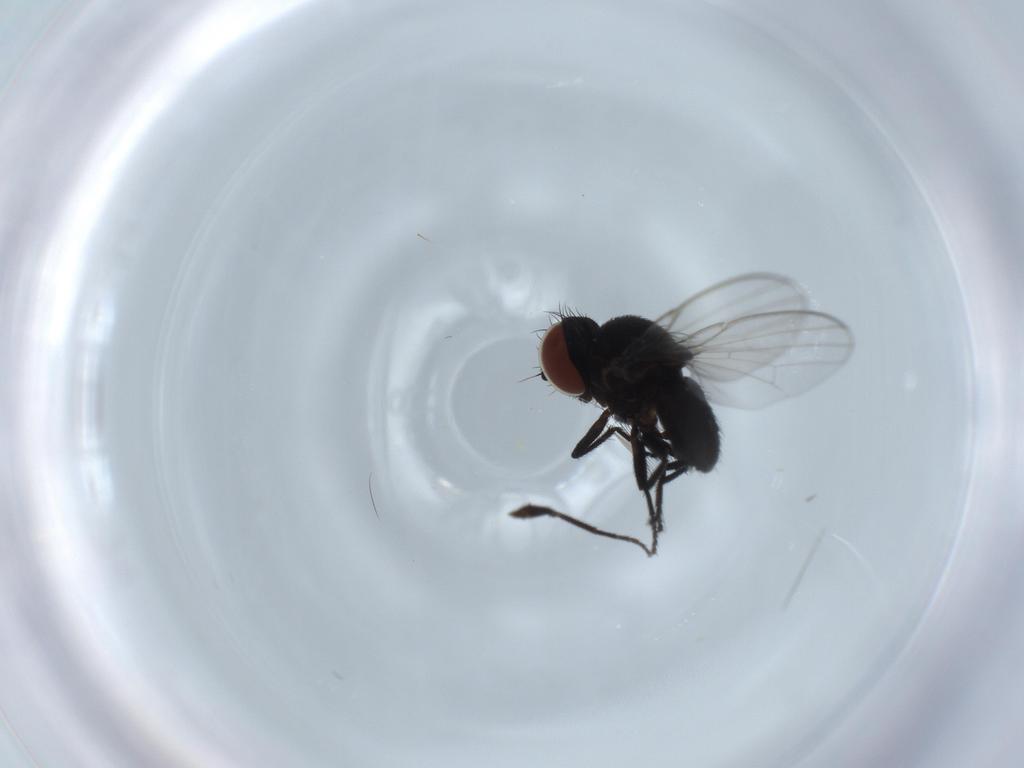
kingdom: Animalia
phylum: Arthropoda
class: Insecta
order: Diptera
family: Milichiidae
